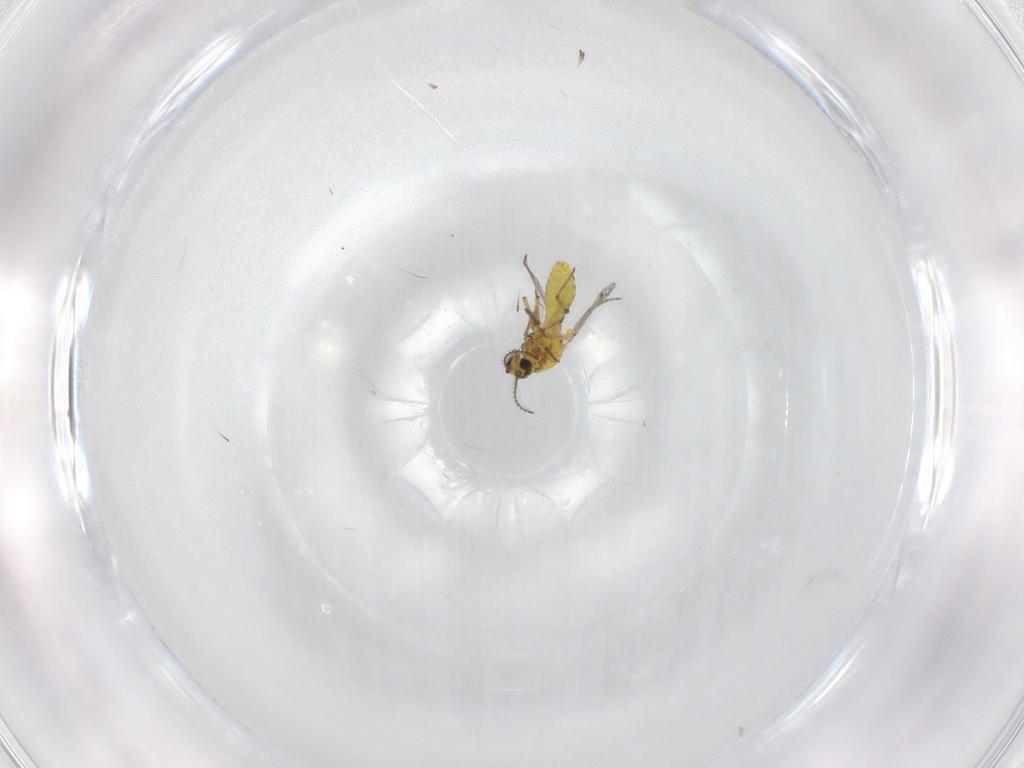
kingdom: Animalia
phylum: Arthropoda
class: Insecta
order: Diptera
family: Ceratopogonidae
